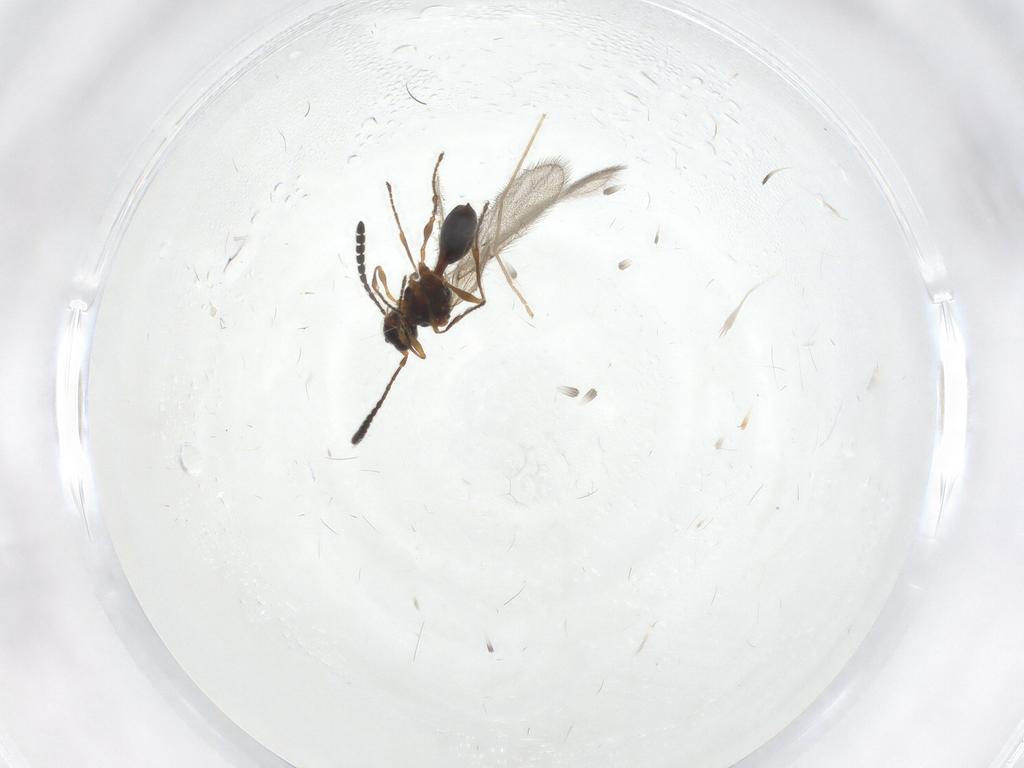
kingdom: Animalia
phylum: Arthropoda
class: Insecta
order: Hymenoptera
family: Diapriidae
